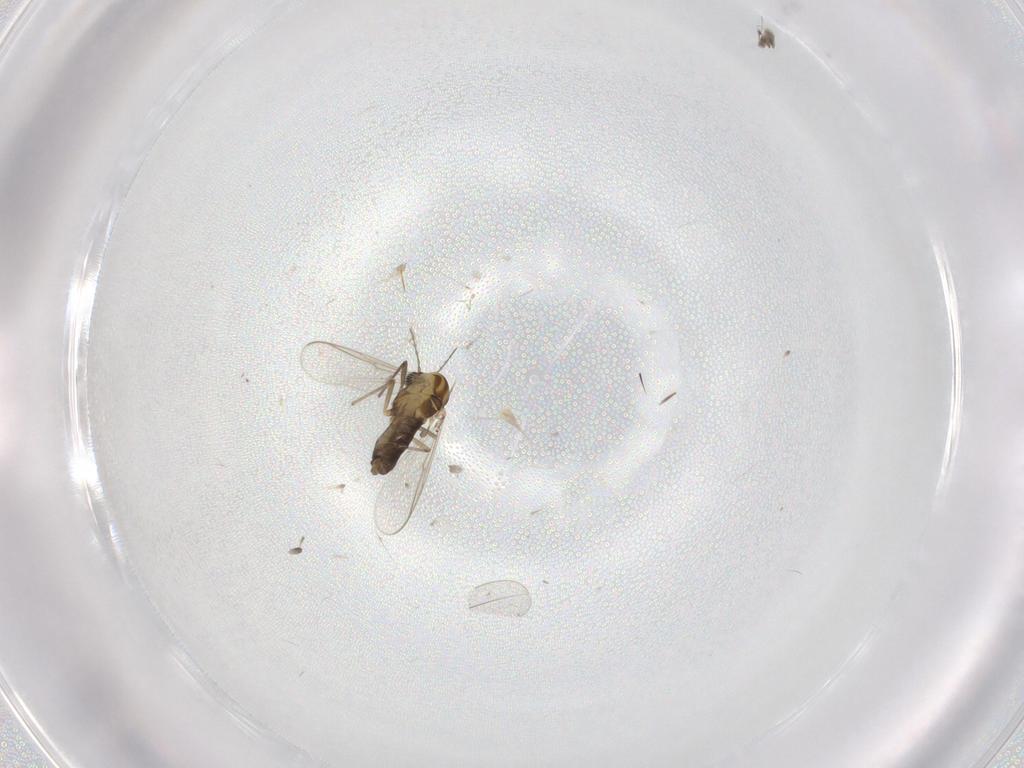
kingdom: Animalia
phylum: Arthropoda
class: Insecta
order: Diptera
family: Chironomidae
